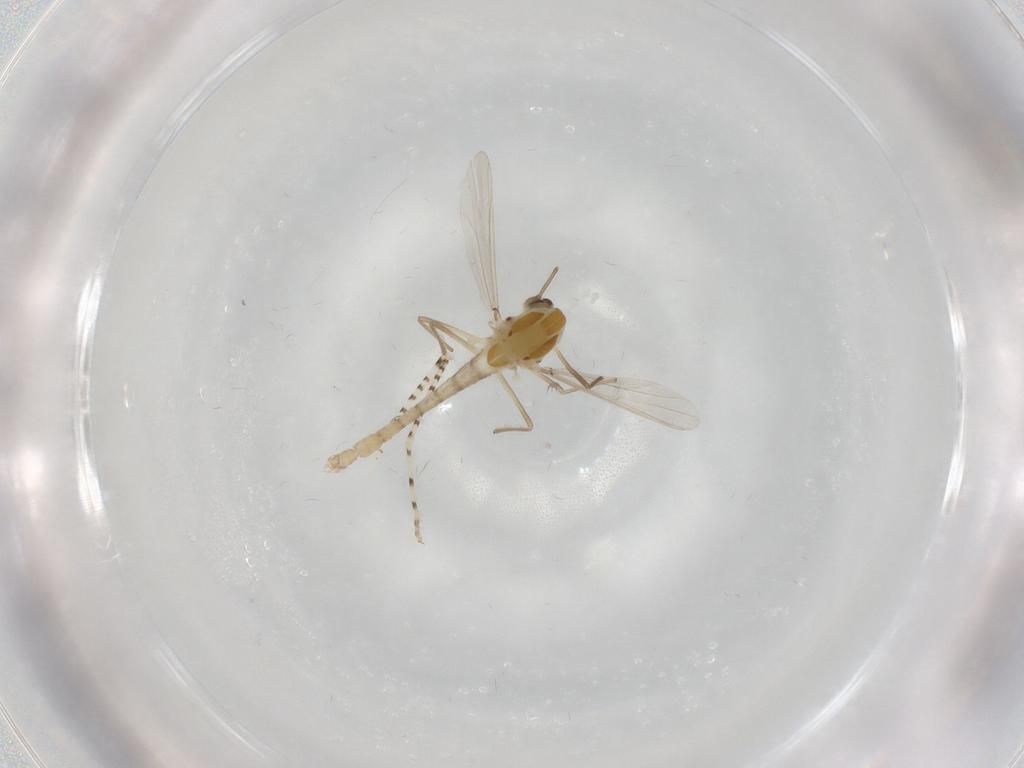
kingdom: Animalia
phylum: Arthropoda
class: Insecta
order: Diptera
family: Chironomidae
